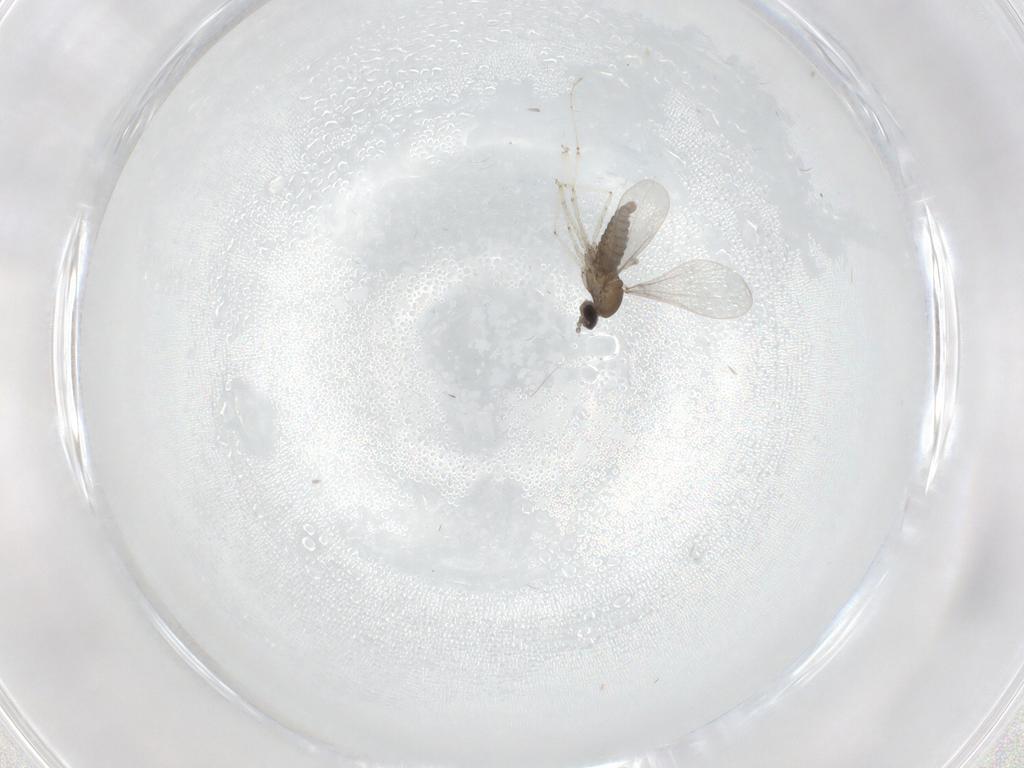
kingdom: Animalia
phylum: Arthropoda
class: Insecta
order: Diptera
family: Cecidomyiidae
